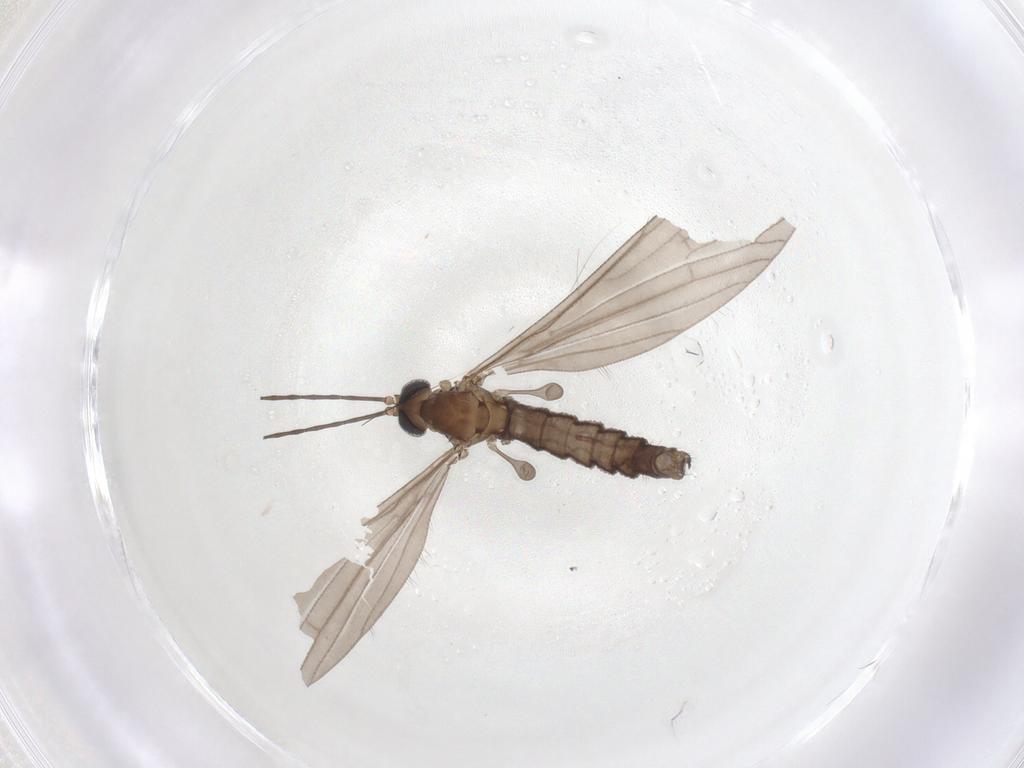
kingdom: Animalia
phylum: Arthropoda
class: Insecta
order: Diptera
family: Limoniidae
